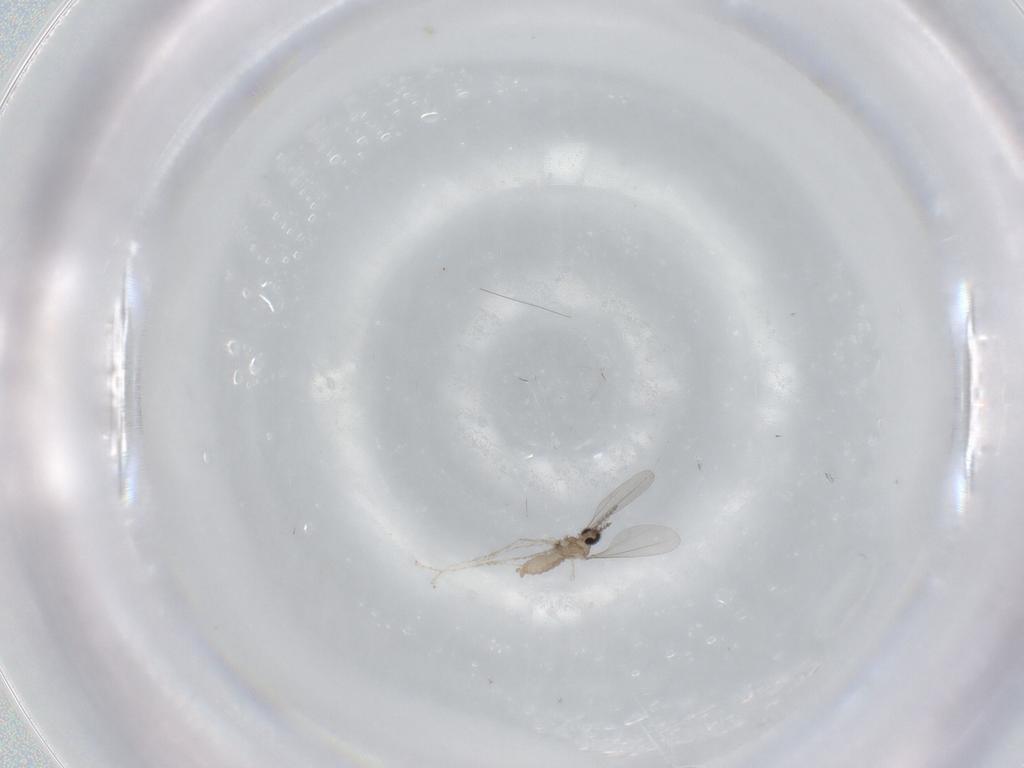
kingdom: Animalia
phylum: Arthropoda
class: Insecta
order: Diptera
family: Cecidomyiidae
